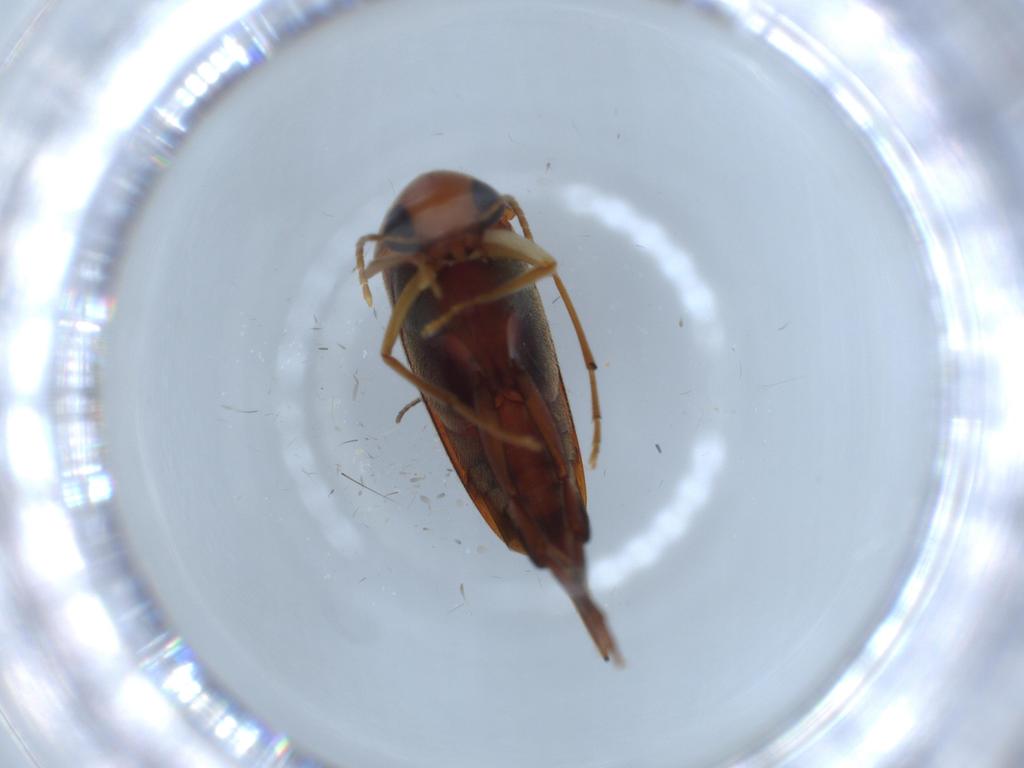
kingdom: Animalia
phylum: Arthropoda
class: Insecta
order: Coleoptera
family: Bostrichidae
